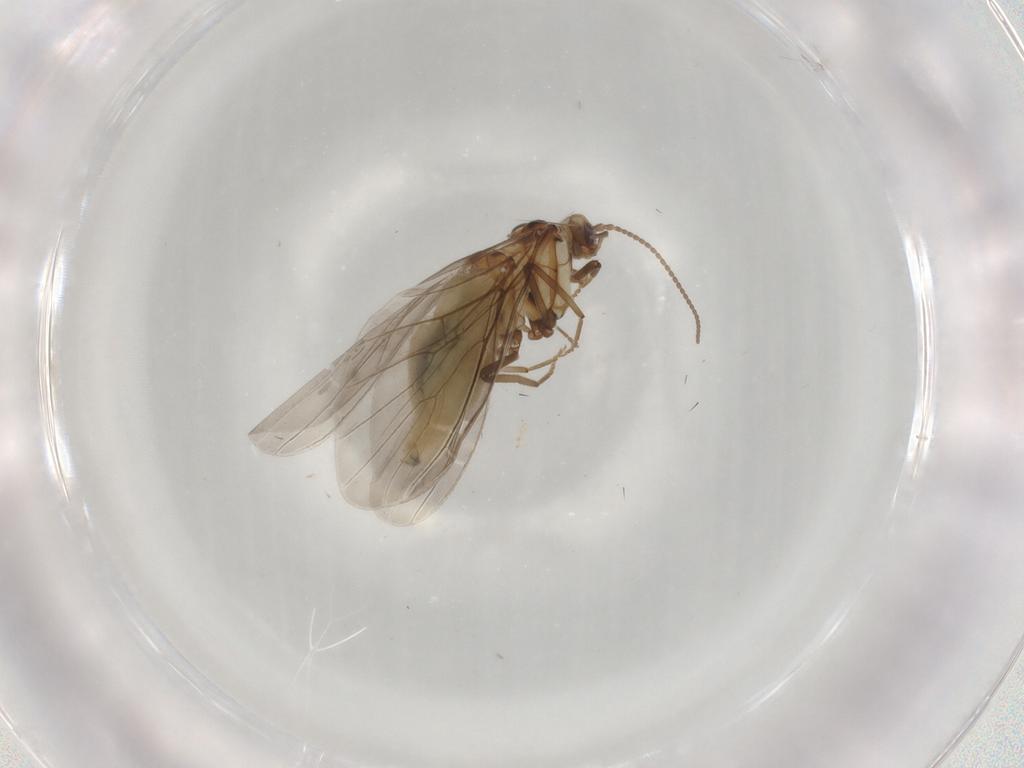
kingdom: Animalia
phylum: Arthropoda
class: Insecta
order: Neuroptera
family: Coniopterygidae
